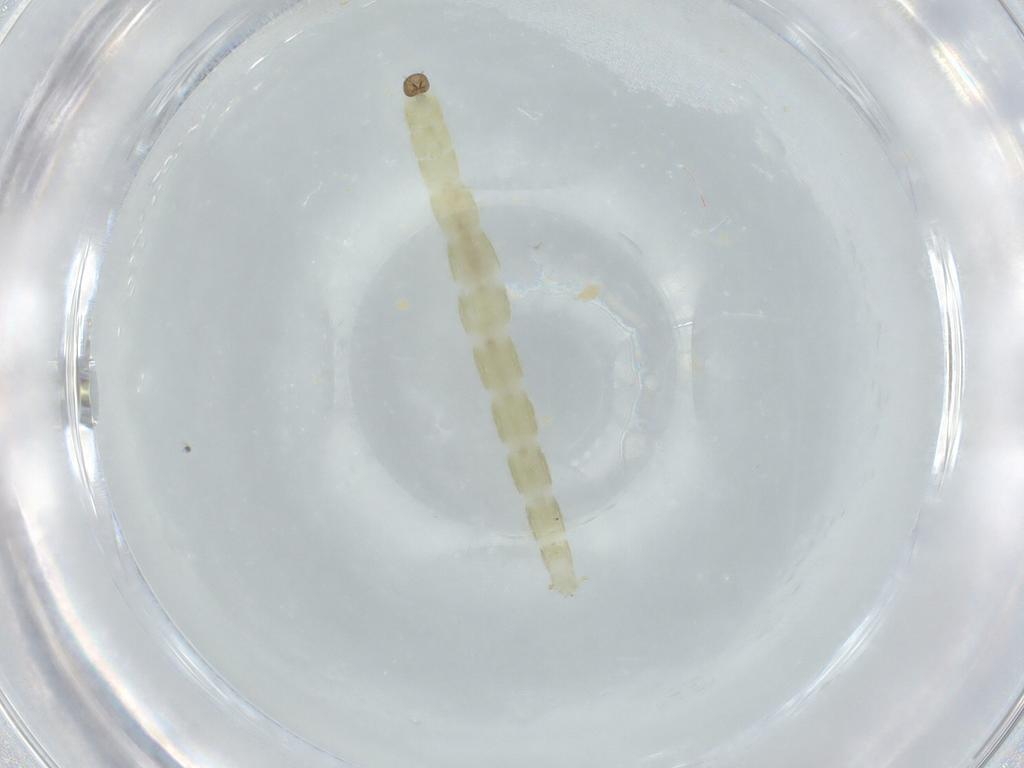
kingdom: Animalia
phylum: Arthropoda
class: Insecta
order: Diptera
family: Chironomidae
